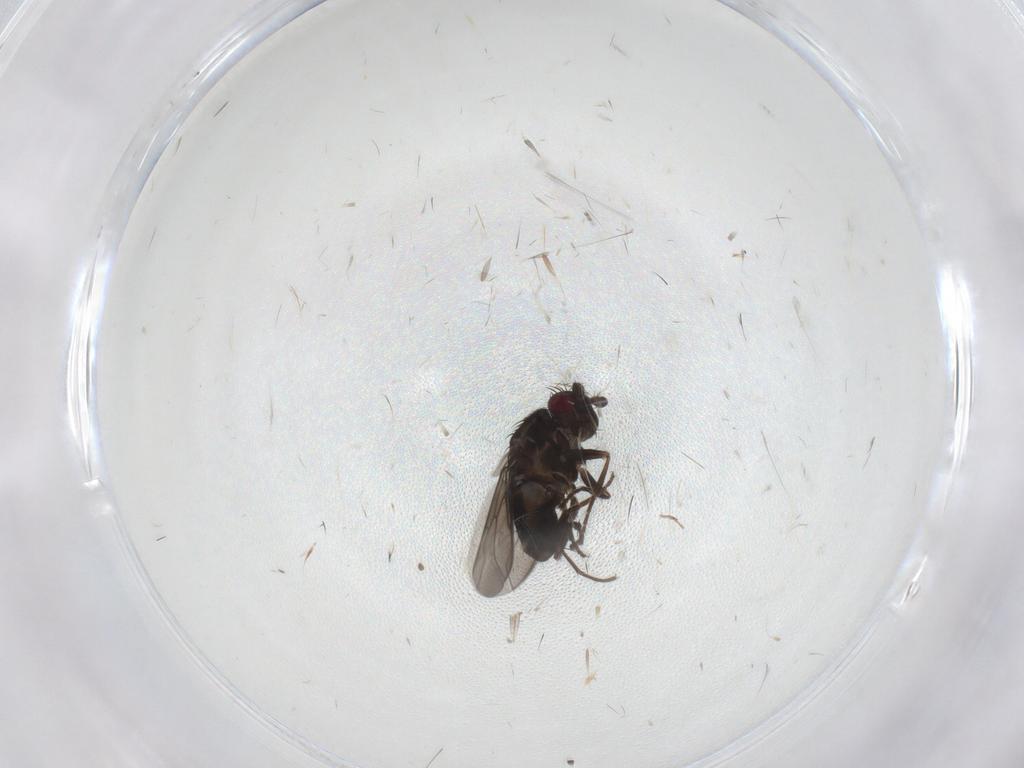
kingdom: Animalia
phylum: Arthropoda
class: Insecta
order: Diptera
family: Sphaeroceridae
